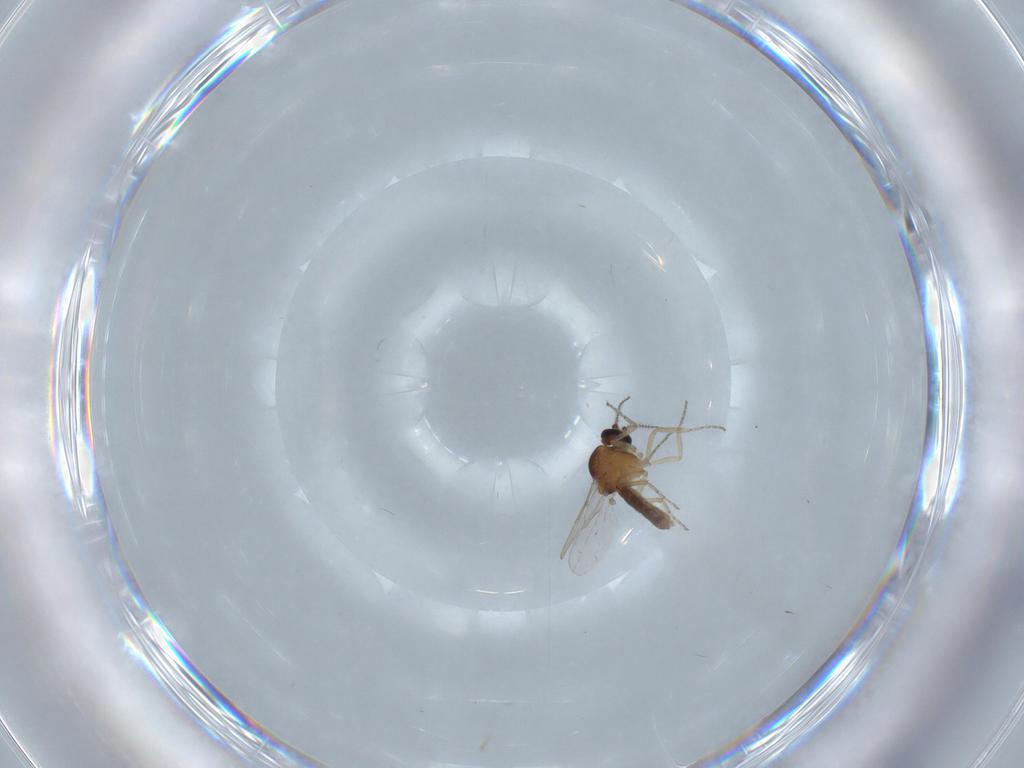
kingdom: Animalia
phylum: Arthropoda
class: Insecta
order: Diptera
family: Ceratopogonidae
